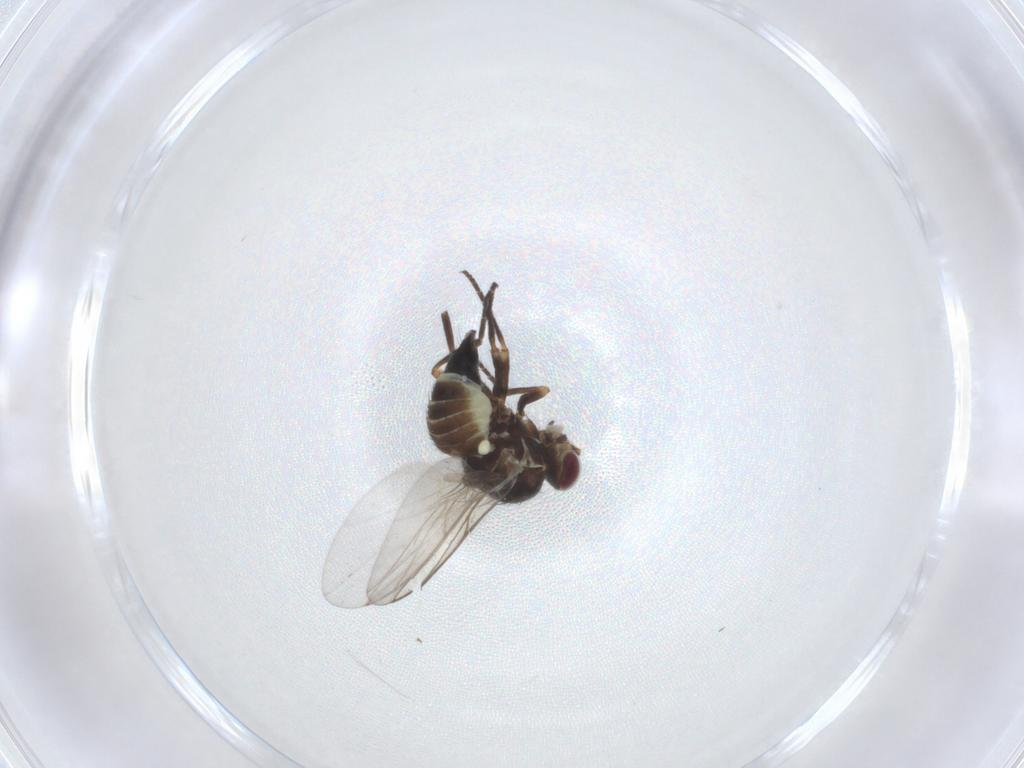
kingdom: Animalia
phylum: Arthropoda
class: Insecta
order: Diptera
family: Agromyzidae
